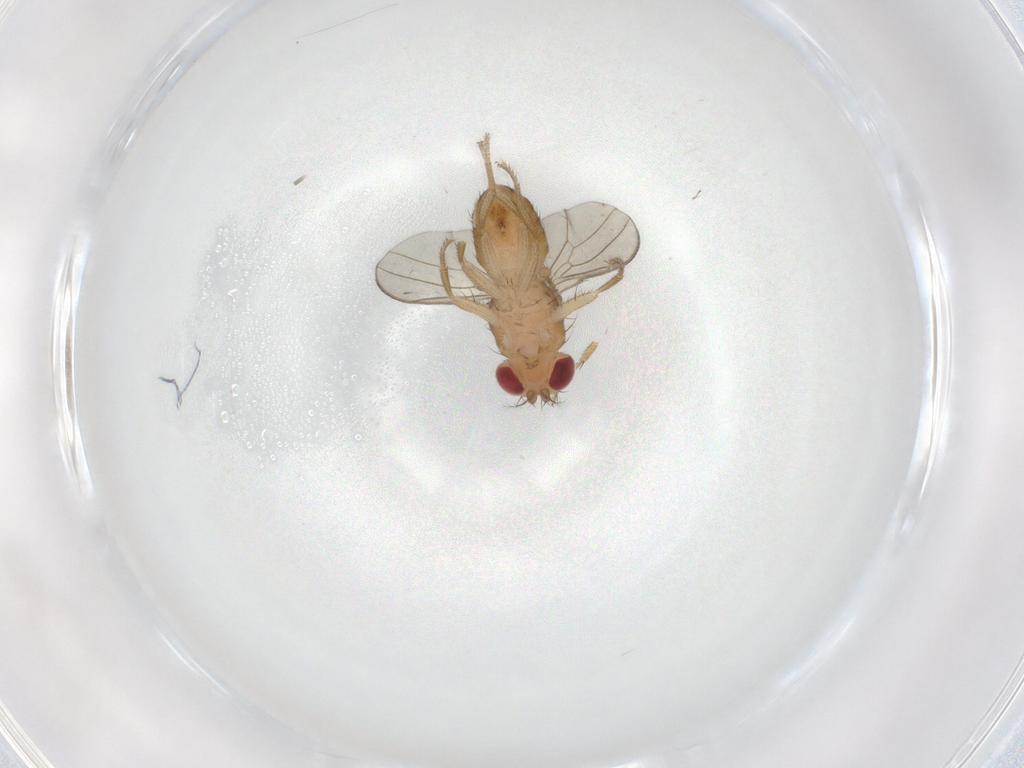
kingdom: Animalia
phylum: Arthropoda
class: Insecta
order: Diptera
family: Drosophilidae
